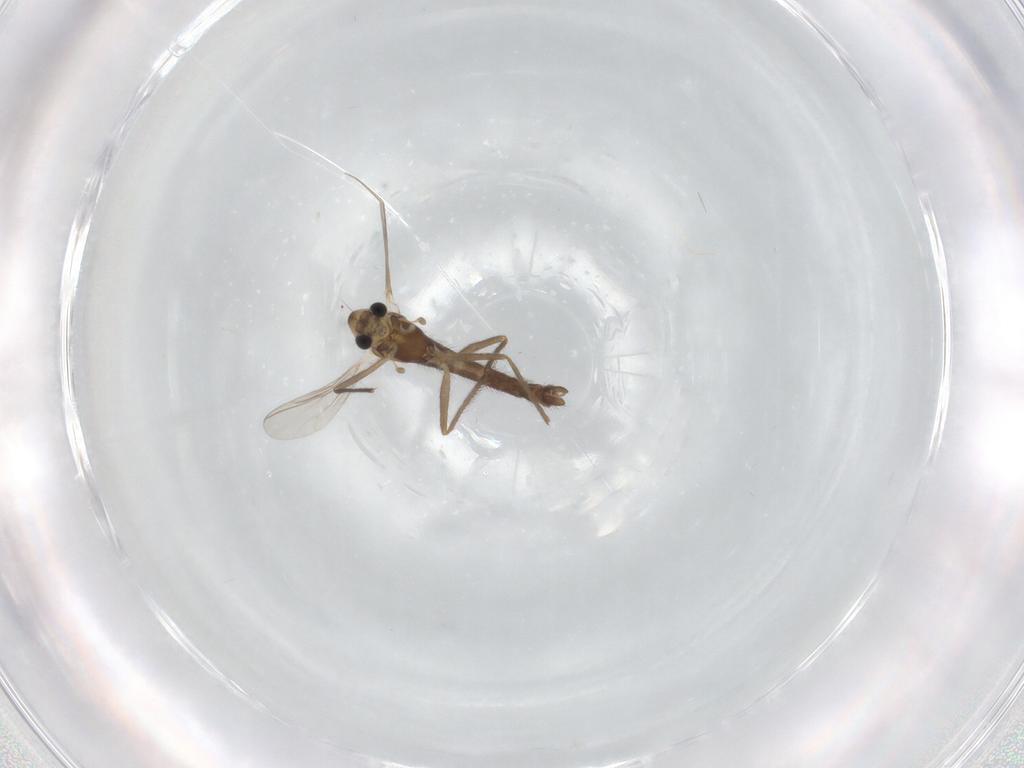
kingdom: Animalia
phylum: Arthropoda
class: Insecta
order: Diptera
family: Chironomidae
